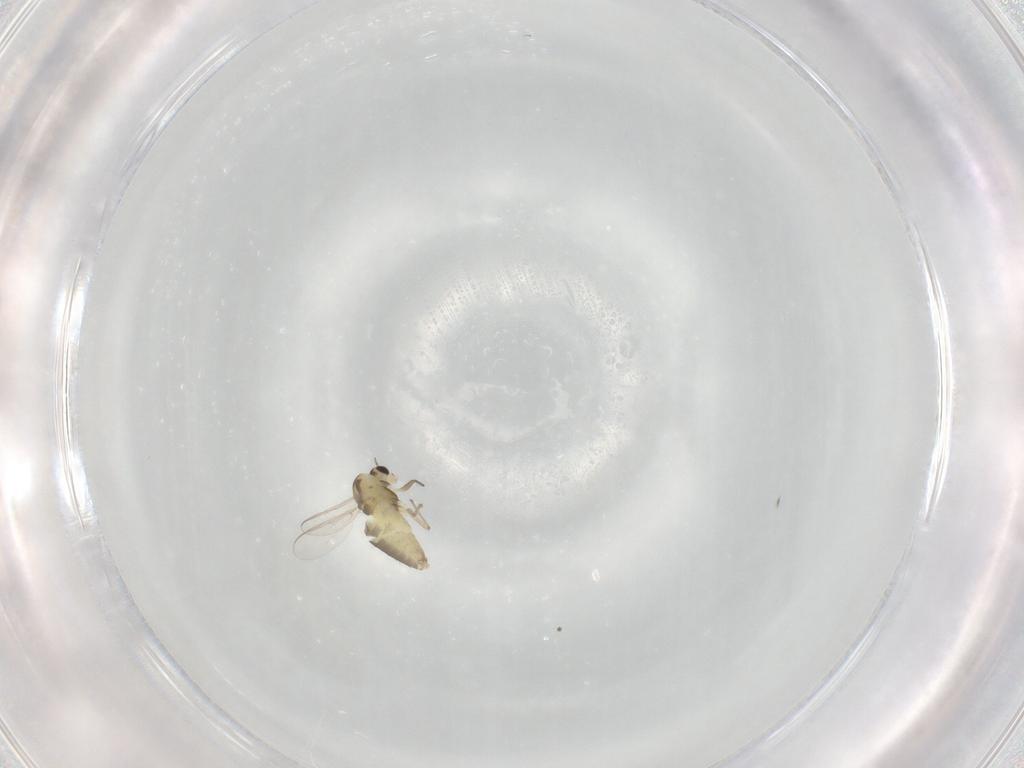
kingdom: Animalia
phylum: Arthropoda
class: Insecta
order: Diptera
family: Chironomidae
